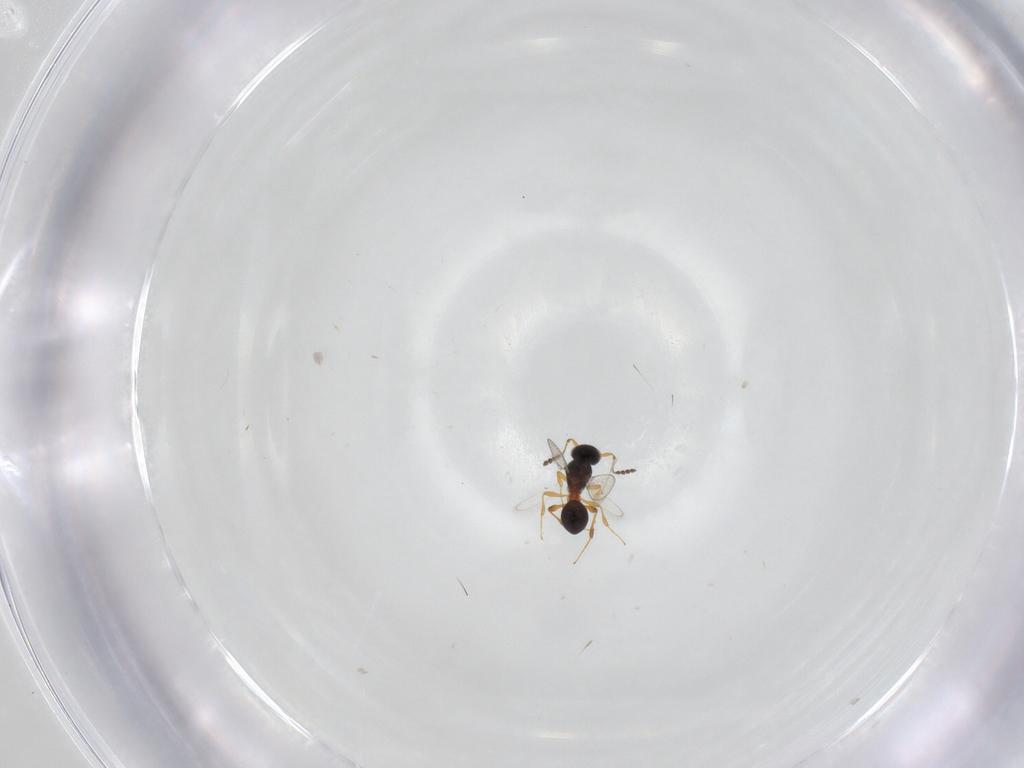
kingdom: Animalia
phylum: Arthropoda
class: Insecta
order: Hymenoptera
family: Platygastridae
